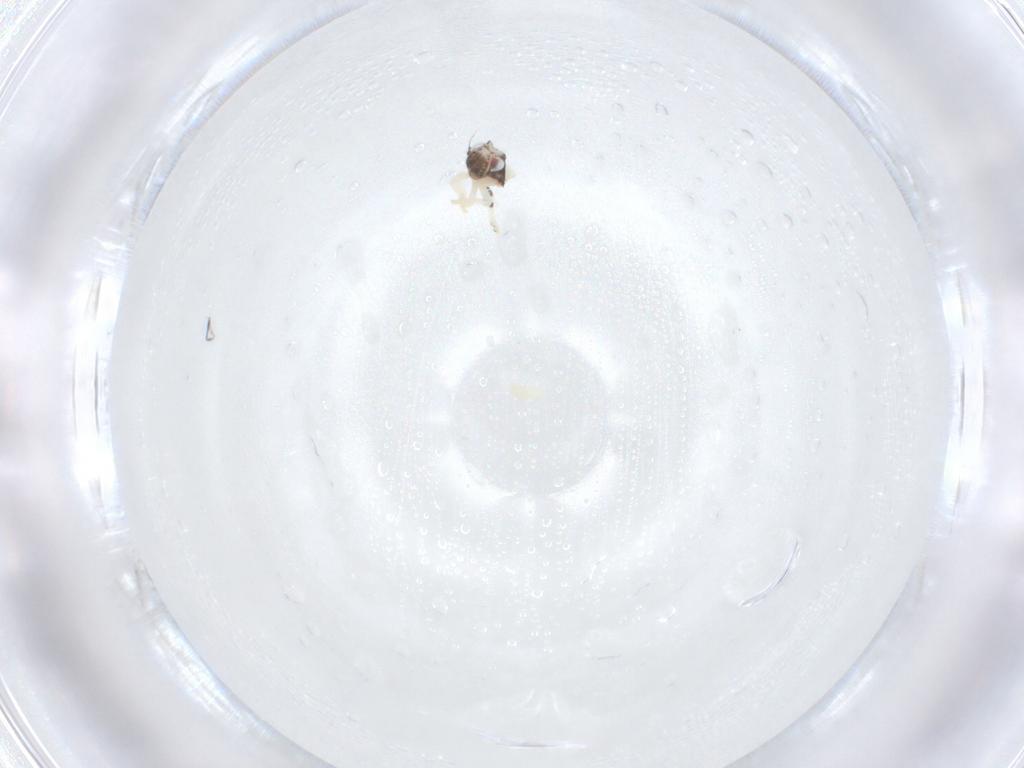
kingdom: Animalia
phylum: Arthropoda
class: Insecta
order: Hemiptera
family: Nogodinidae
